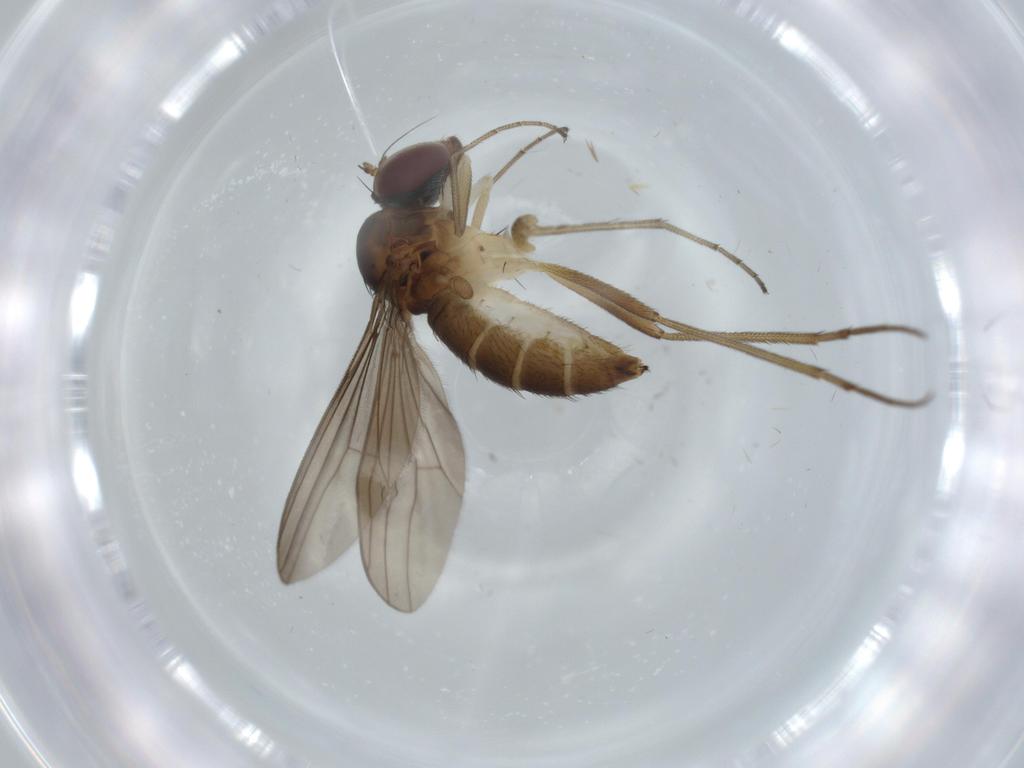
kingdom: Animalia
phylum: Arthropoda
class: Insecta
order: Diptera
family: Dolichopodidae
